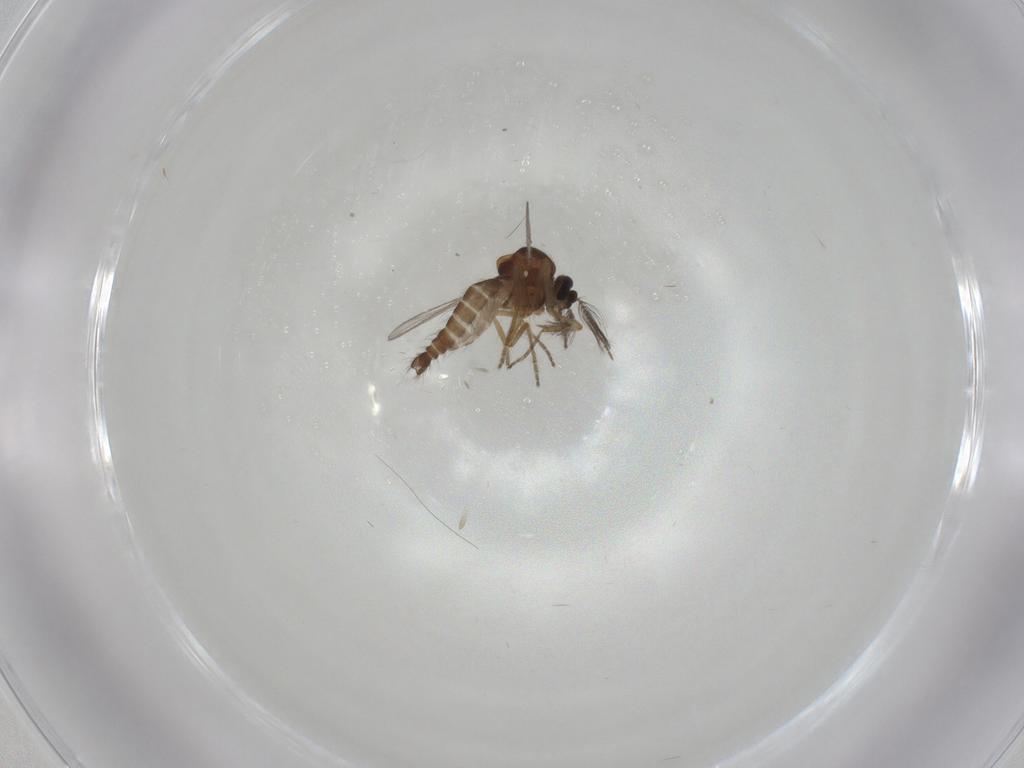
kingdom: Animalia
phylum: Arthropoda
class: Insecta
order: Diptera
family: Ceratopogonidae
